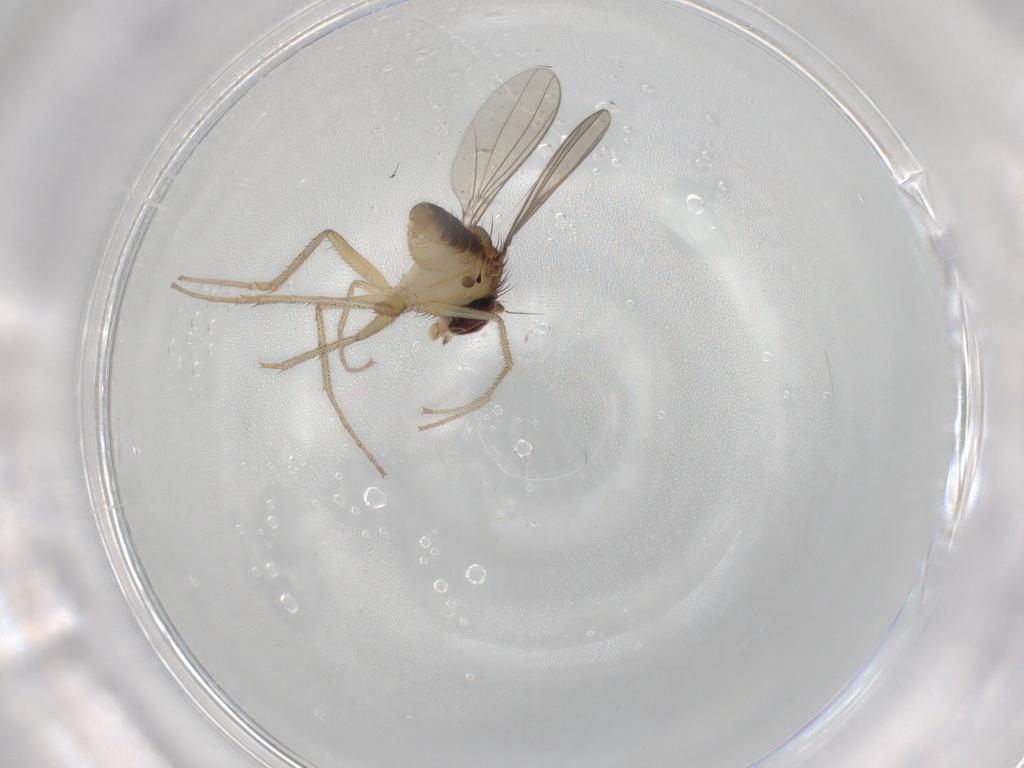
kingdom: Animalia
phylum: Arthropoda
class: Insecta
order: Diptera
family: Dolichopodidae
